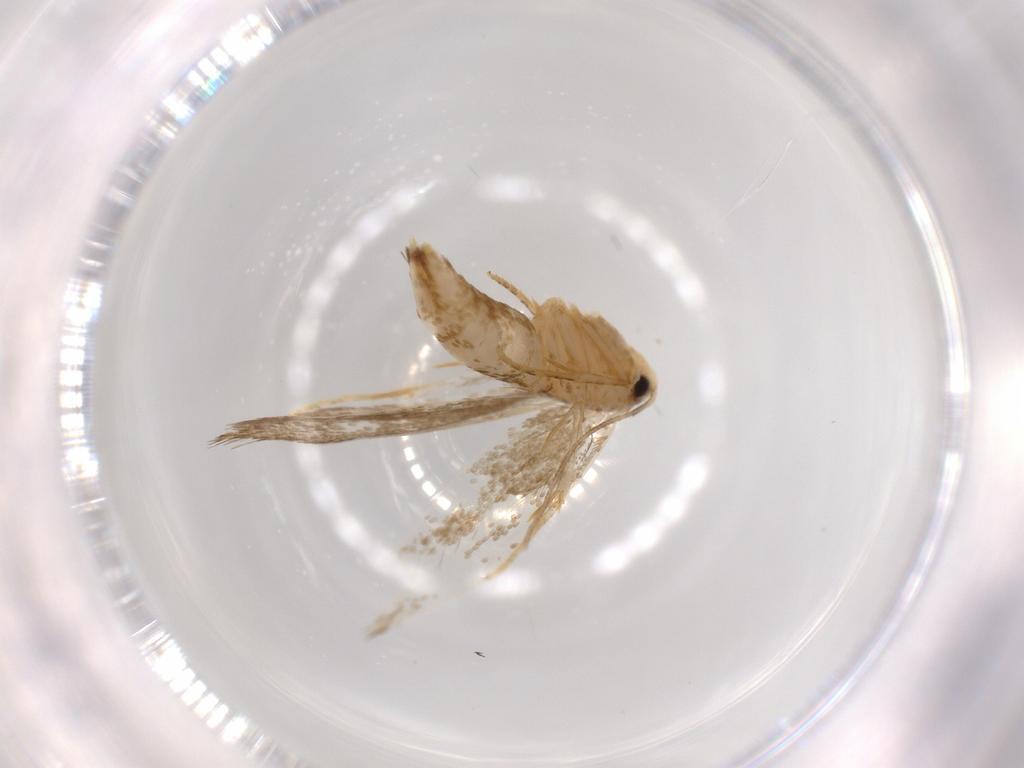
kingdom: Animalia
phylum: Arthropoda
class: Insecta
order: Lepidoptera
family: Tineidae
